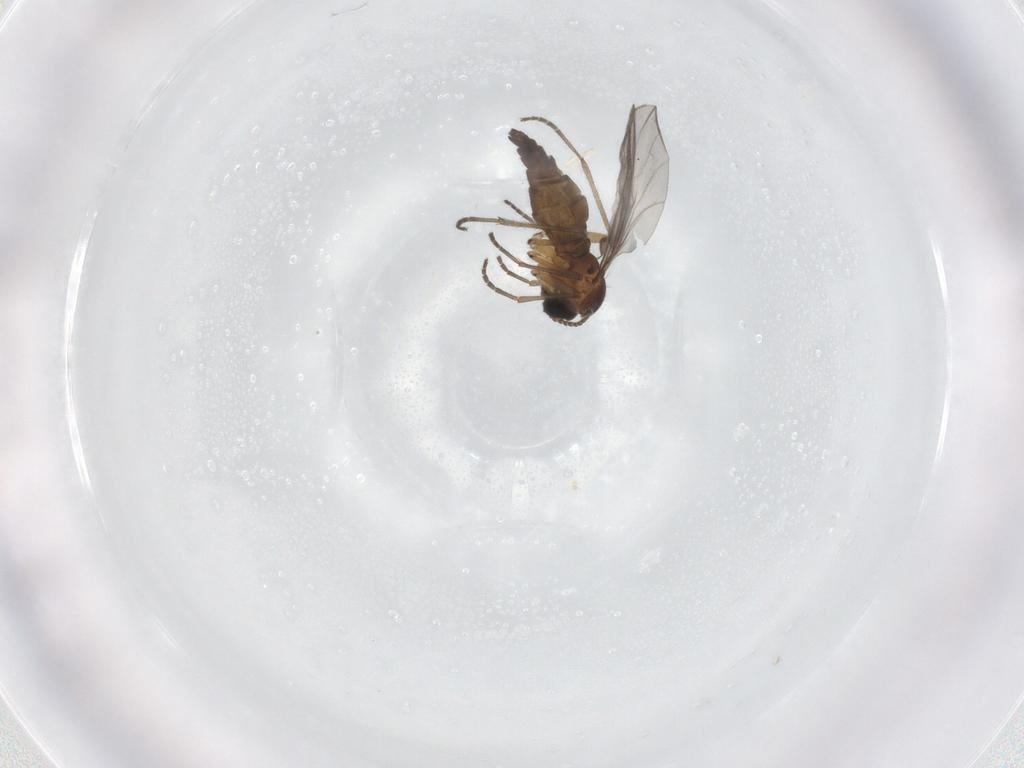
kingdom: Animalia
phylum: Arthropoda
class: Insecta
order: Diptera
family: Sciaridae
